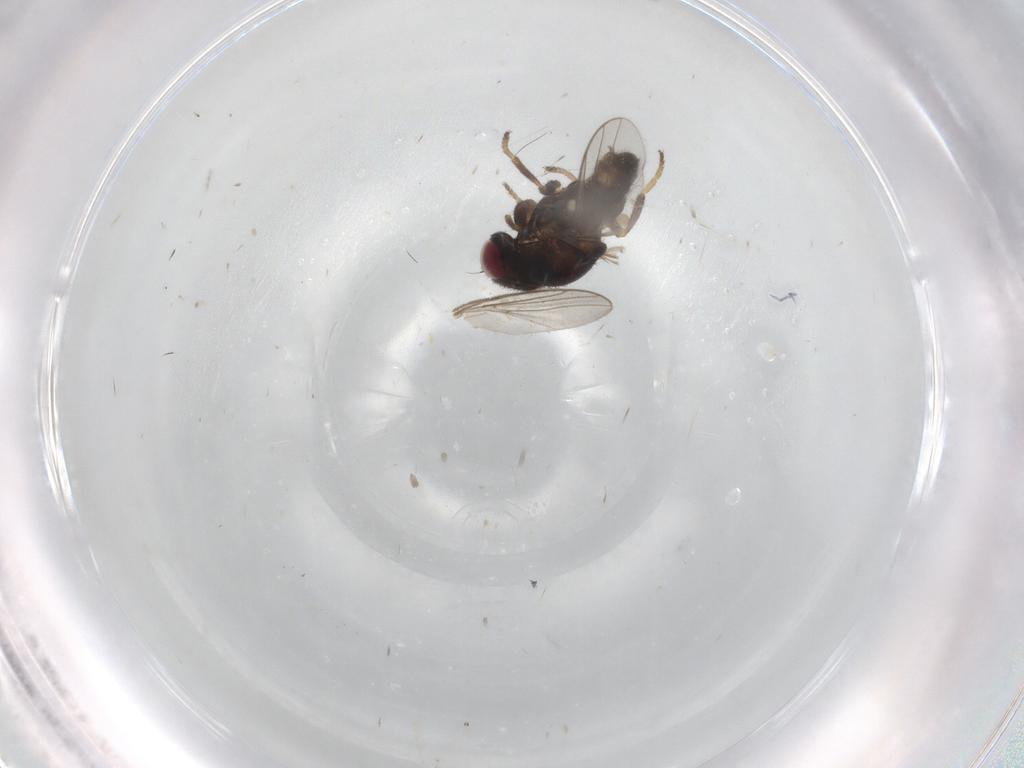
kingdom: Animalia
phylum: Arthropoda
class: Insecta
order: Diptera
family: Chloropidae
